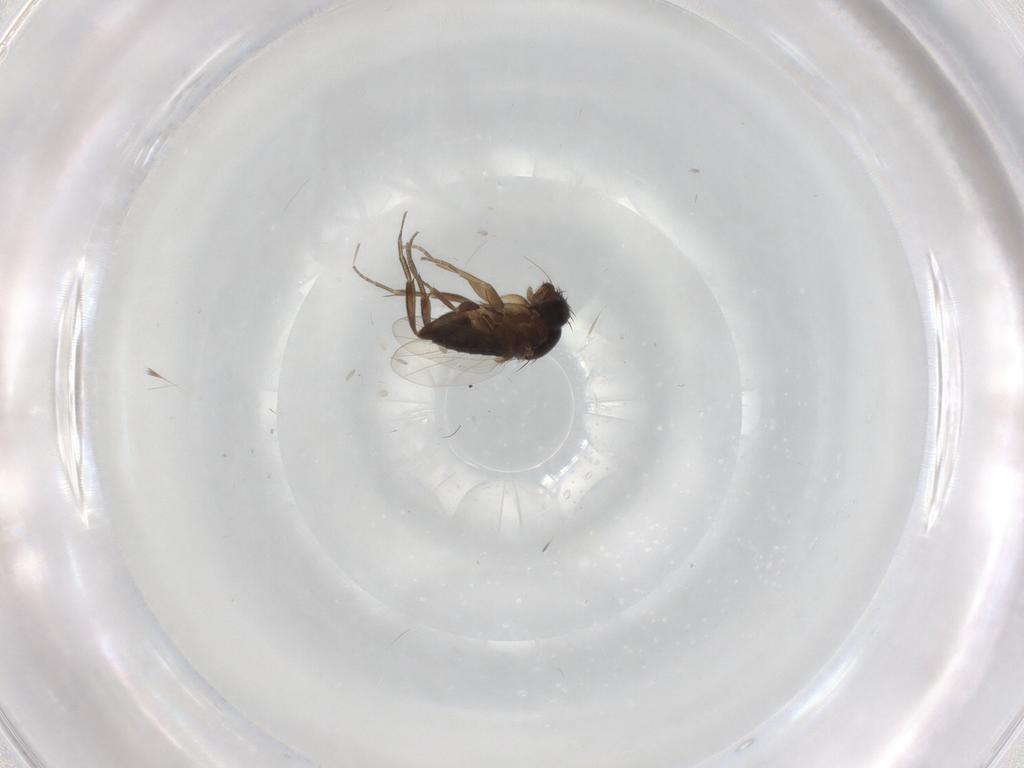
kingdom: Animalia
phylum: Arthropoda
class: Insecta
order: Diptera
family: Phoridae
